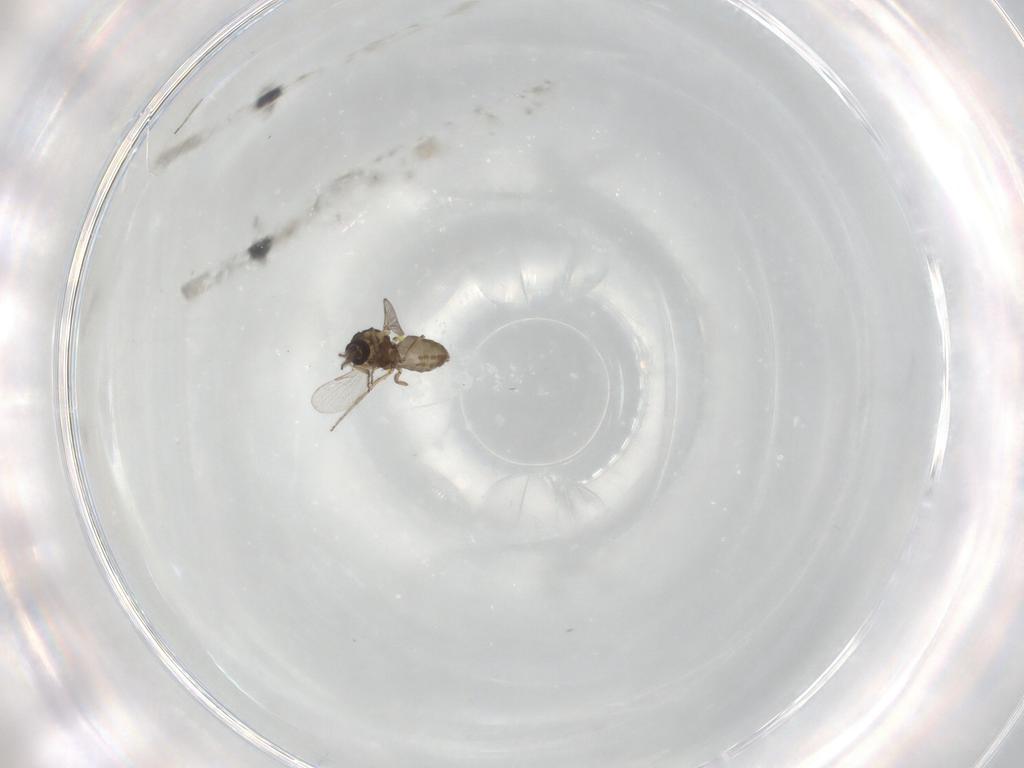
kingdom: Animalia
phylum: Arthropoda
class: Insecta
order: Diptera
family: Ceratopogonidae
